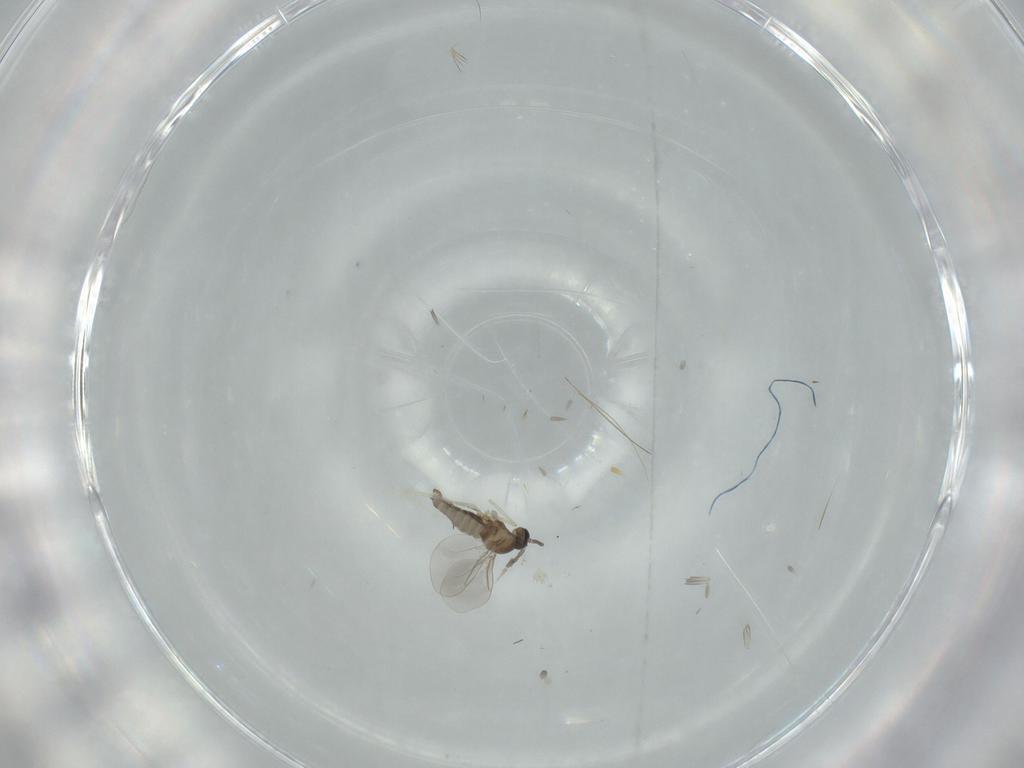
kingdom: Animalia
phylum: Arthropoda
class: Insecta
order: Diptera
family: Cecidomyiidae
